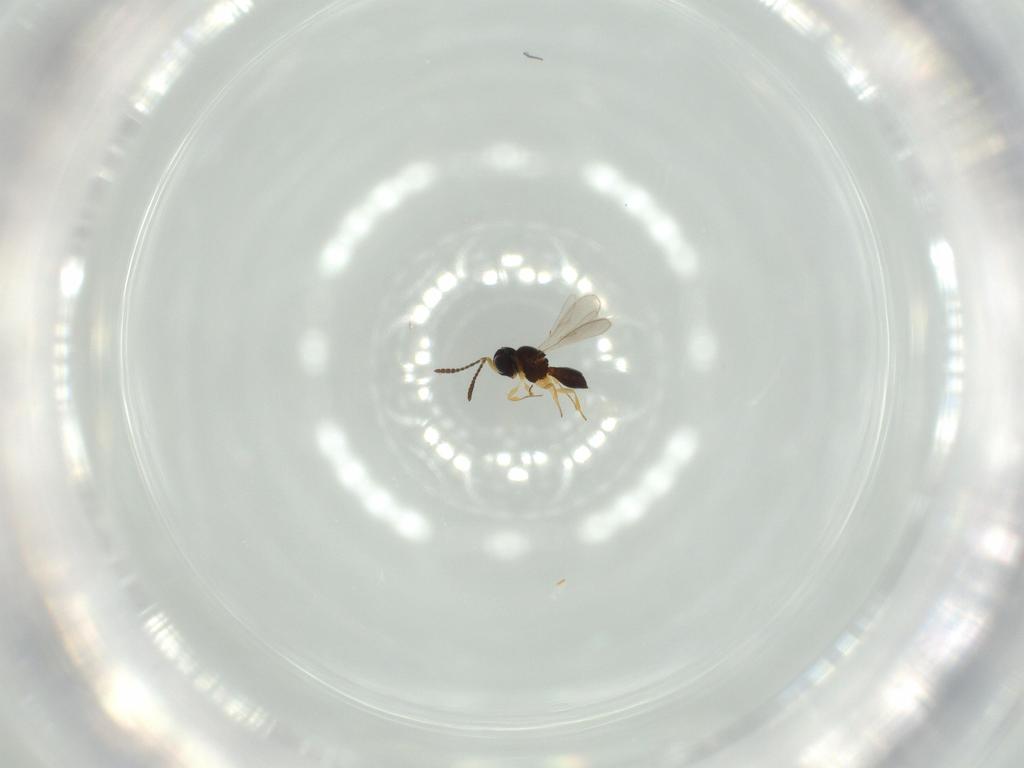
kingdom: Animalia
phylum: Arthropoda
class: Insecta
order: Hymenoptera
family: Scelionidae
